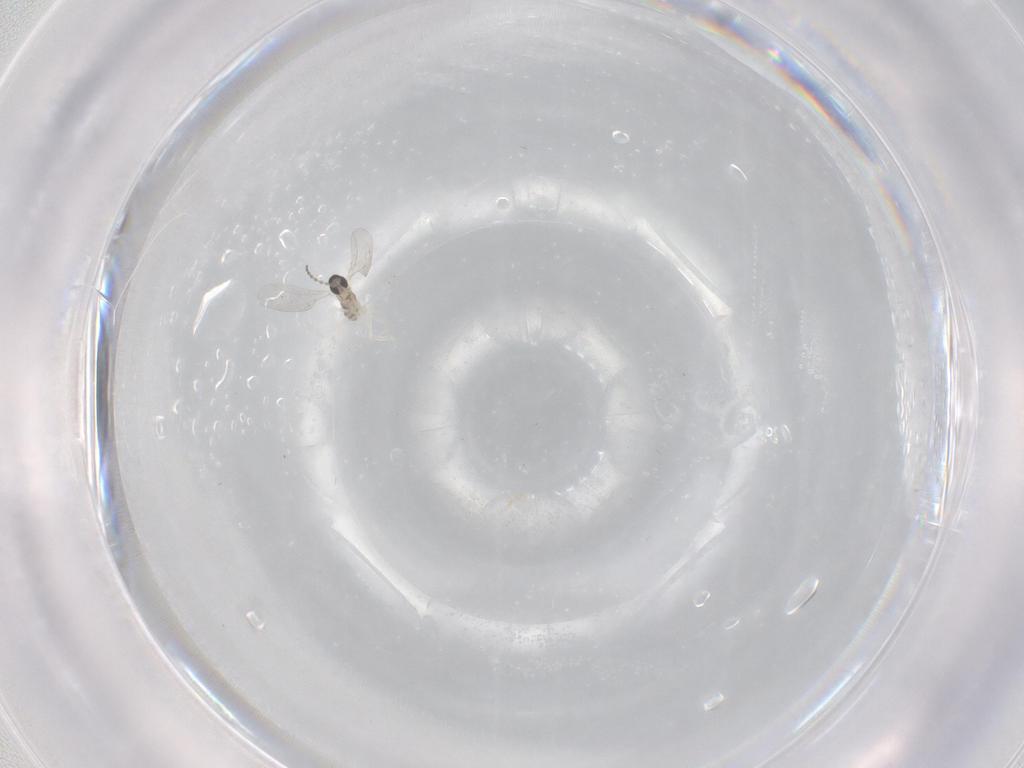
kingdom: Animalia
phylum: Arthropoda
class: Insecta
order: Diptera
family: Cecidomyiidae
